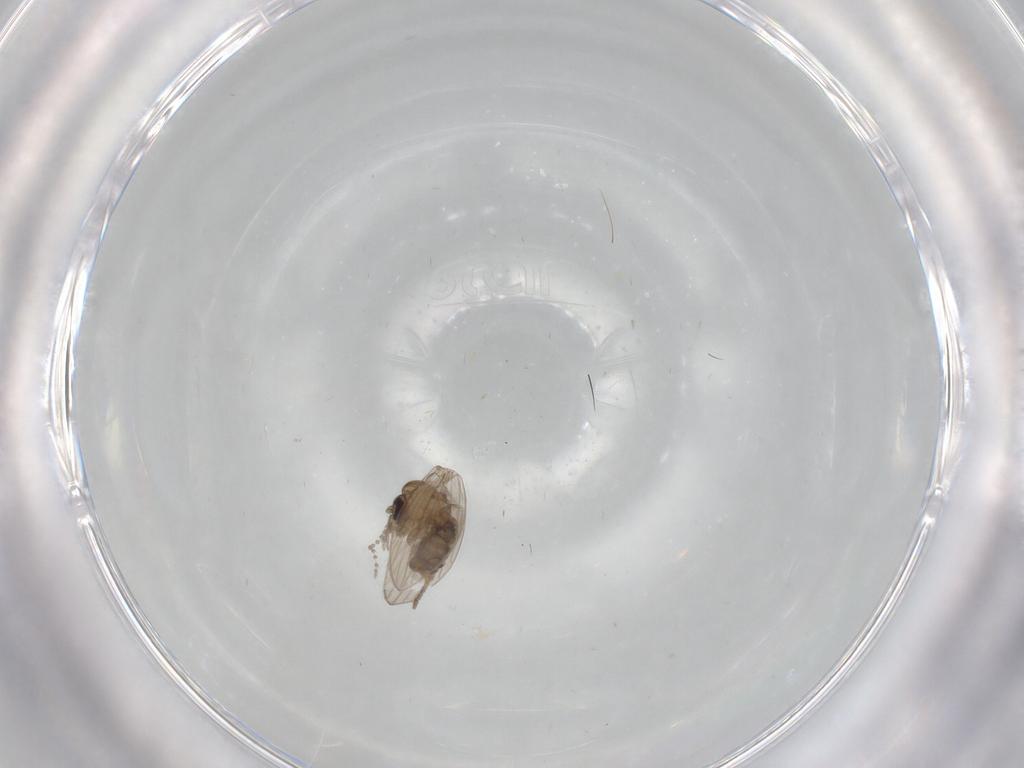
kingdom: Animalia
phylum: Arthropoda
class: Insecta
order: Diptera
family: Psychodidae
